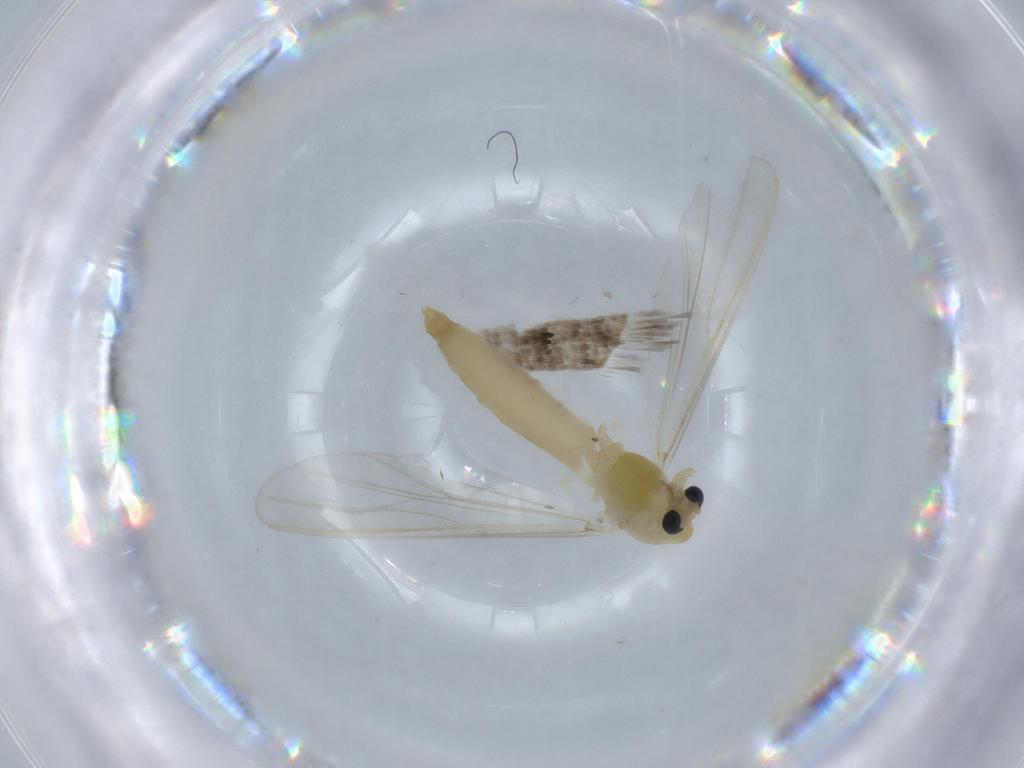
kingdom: Animalia
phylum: Arthropoda
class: Insecta
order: Diptera
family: Chironomidae
